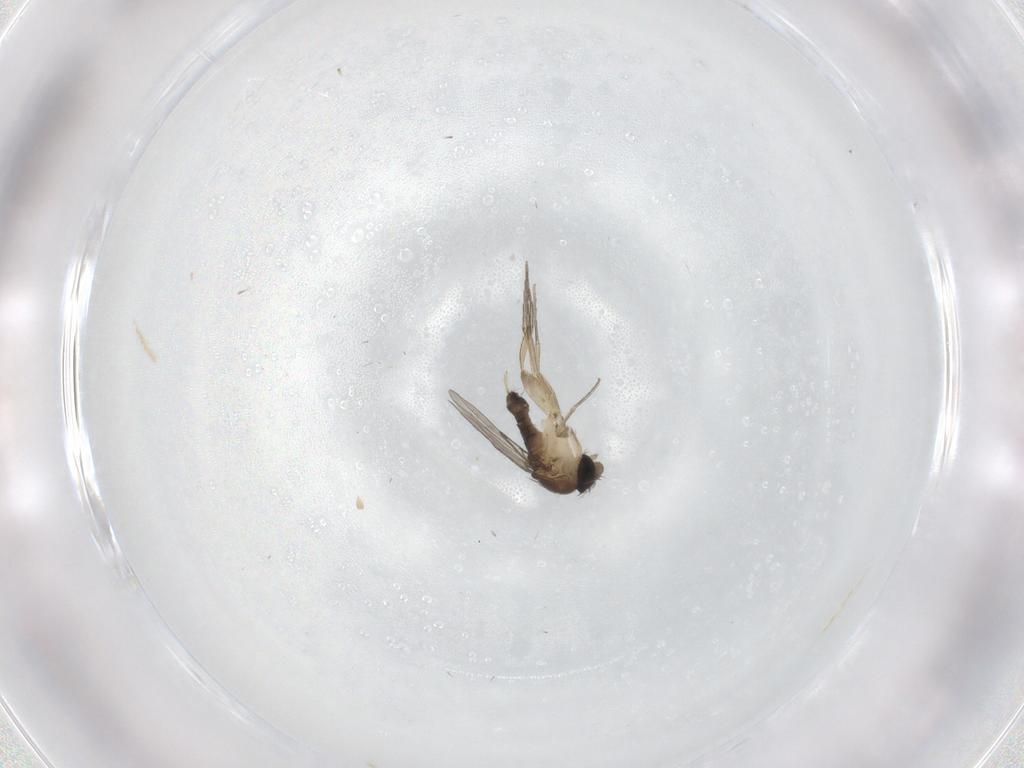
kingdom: Animalia
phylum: Arthropoda
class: Insecta
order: Diptera
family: Phoridae
